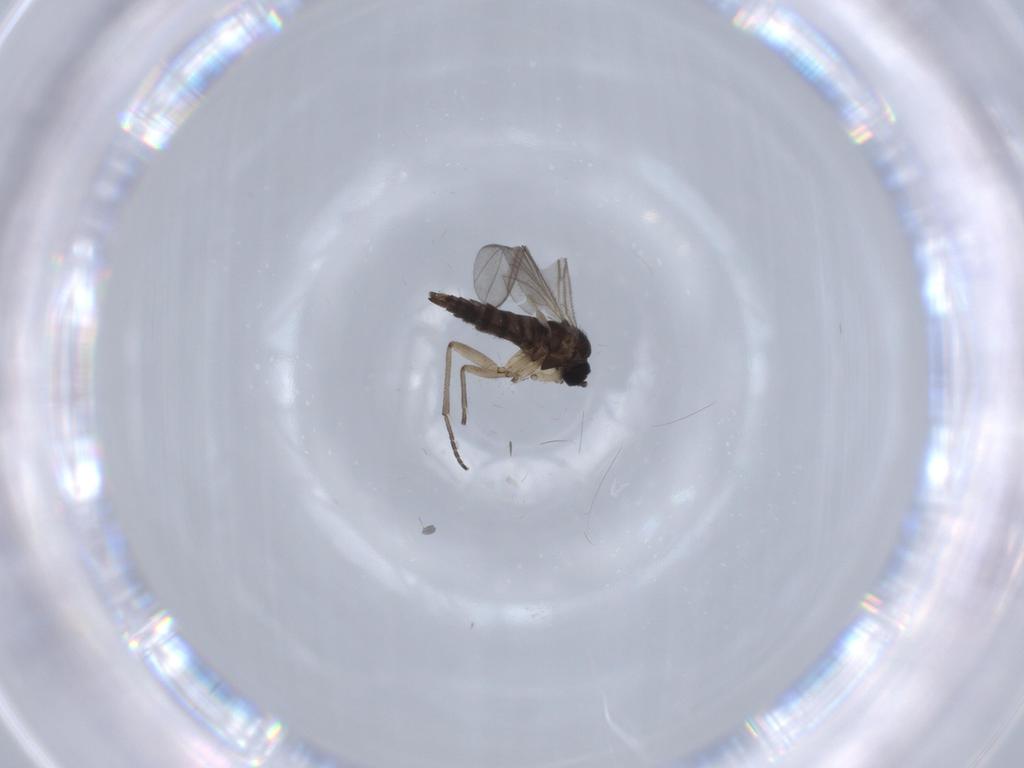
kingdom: Animalia
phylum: Arthropoda
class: Insecta
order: Diptera
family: Sciaridae
